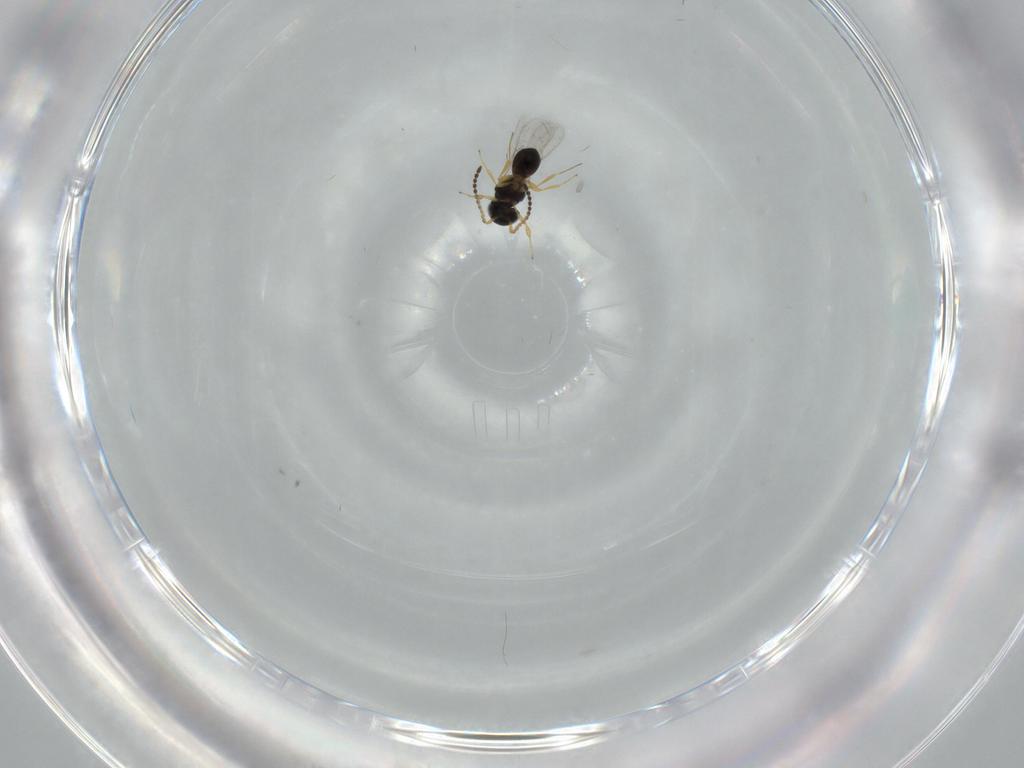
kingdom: Animalia
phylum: Arthropoda
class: Insecta
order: Hymenoptera
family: Scelionidae
